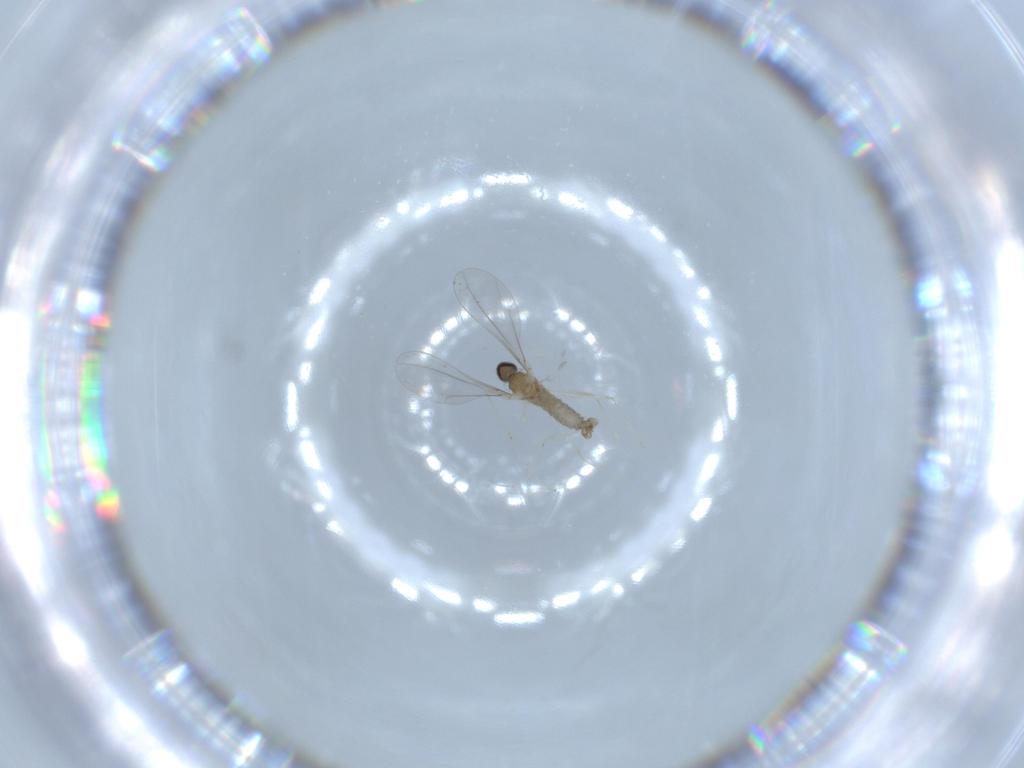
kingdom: Animalia
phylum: Arthropoda
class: Insecta
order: Diptera
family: Cecidomyiidae
